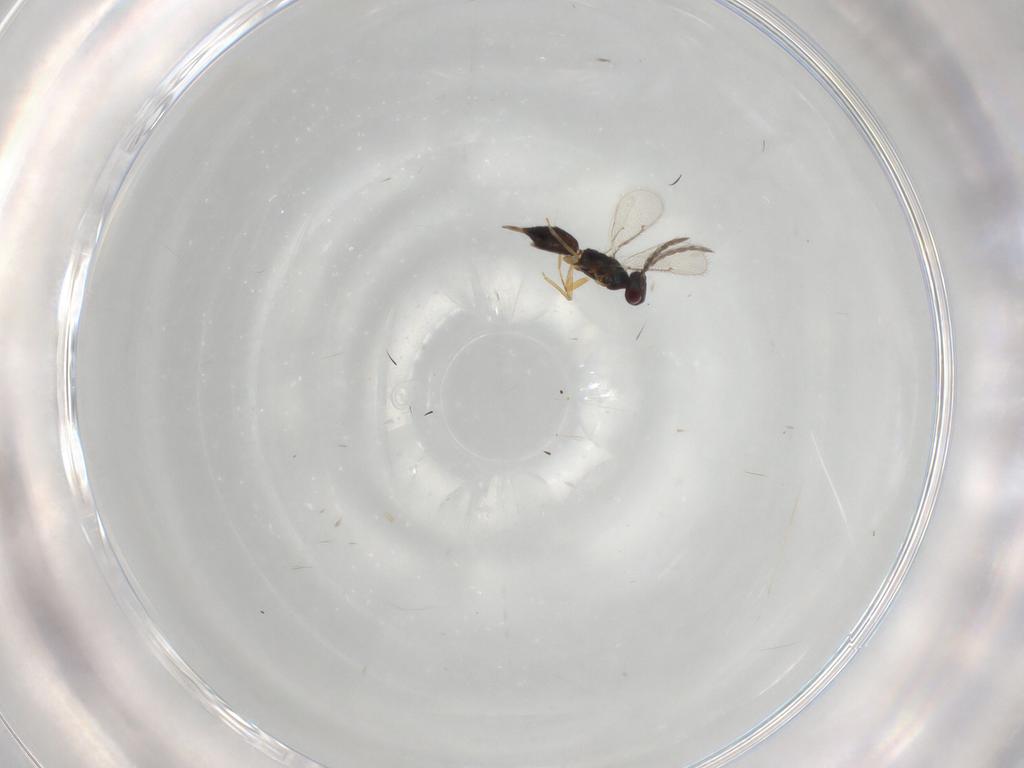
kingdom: Animalia
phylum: Arthropoda
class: Insecta
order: Hymenoptera
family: Eulophidae
